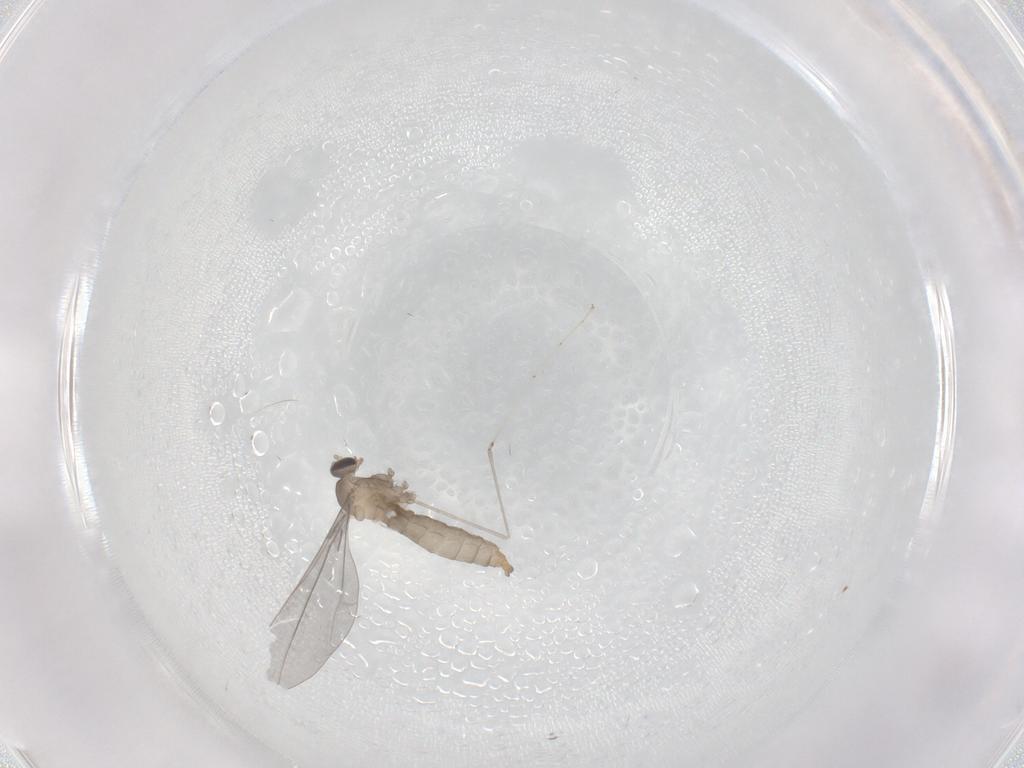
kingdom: Animalia
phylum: Arthropoda
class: Insecta
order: Diptera
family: Cecidomyiidae
